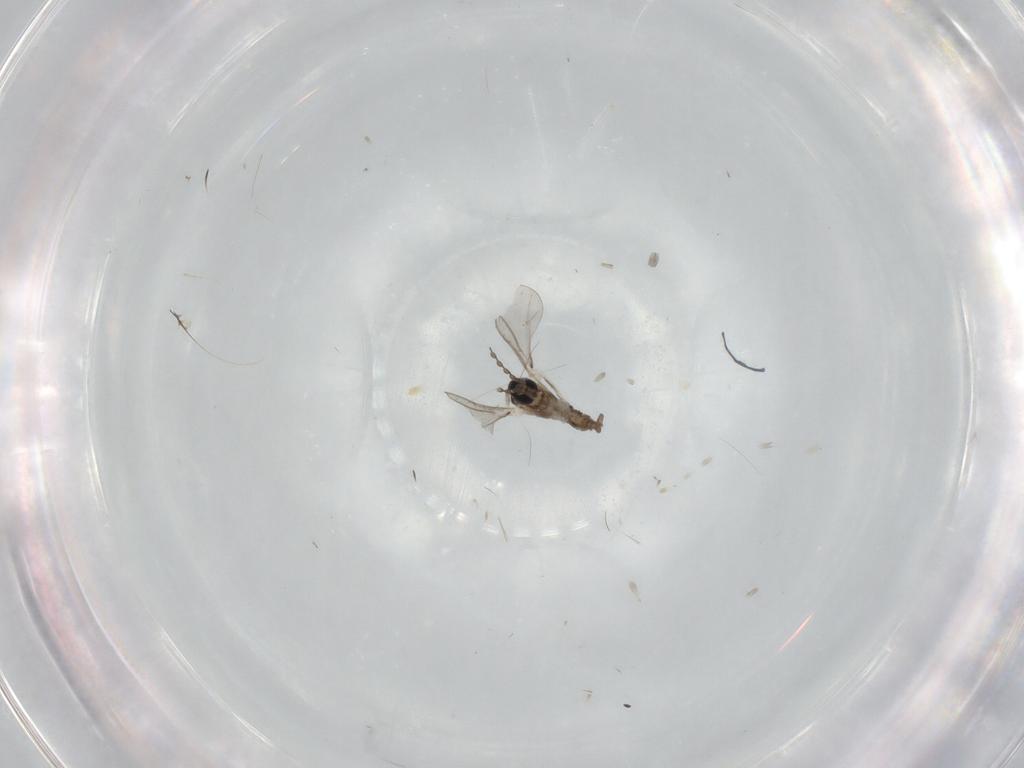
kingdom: Animalia
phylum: Arthropoda
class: Insecta
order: Diptera
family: Cecidomyiidae
